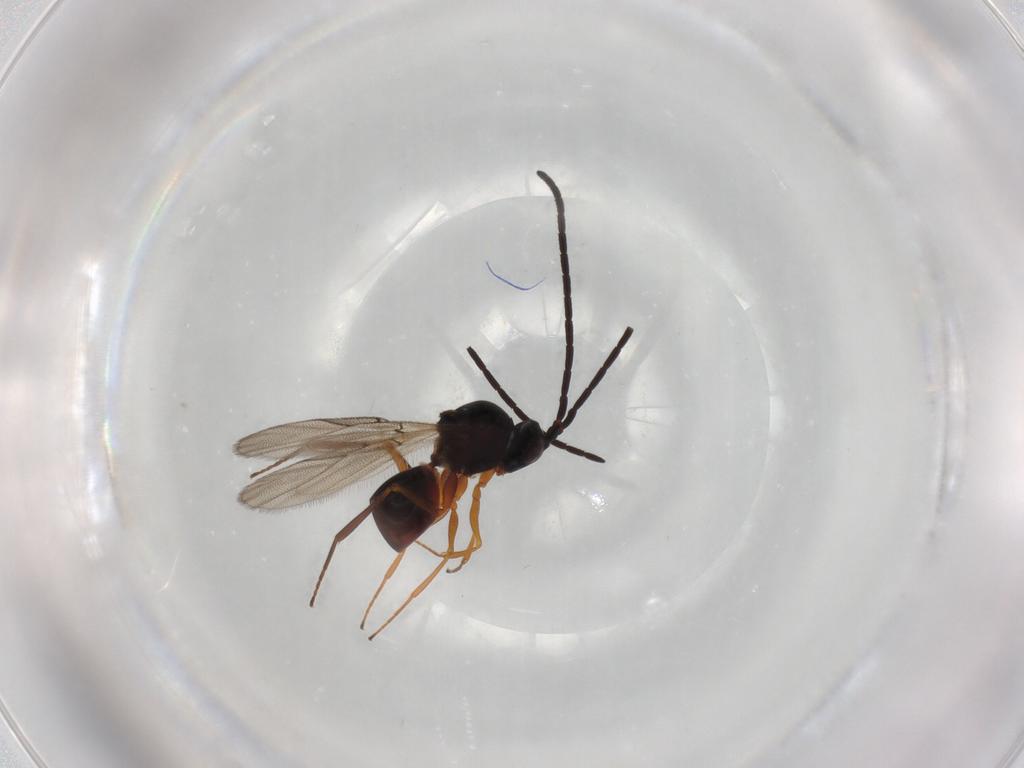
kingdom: Animalia
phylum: Arthropoda
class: Insecta
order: Hymenoptera
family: Figitidae
